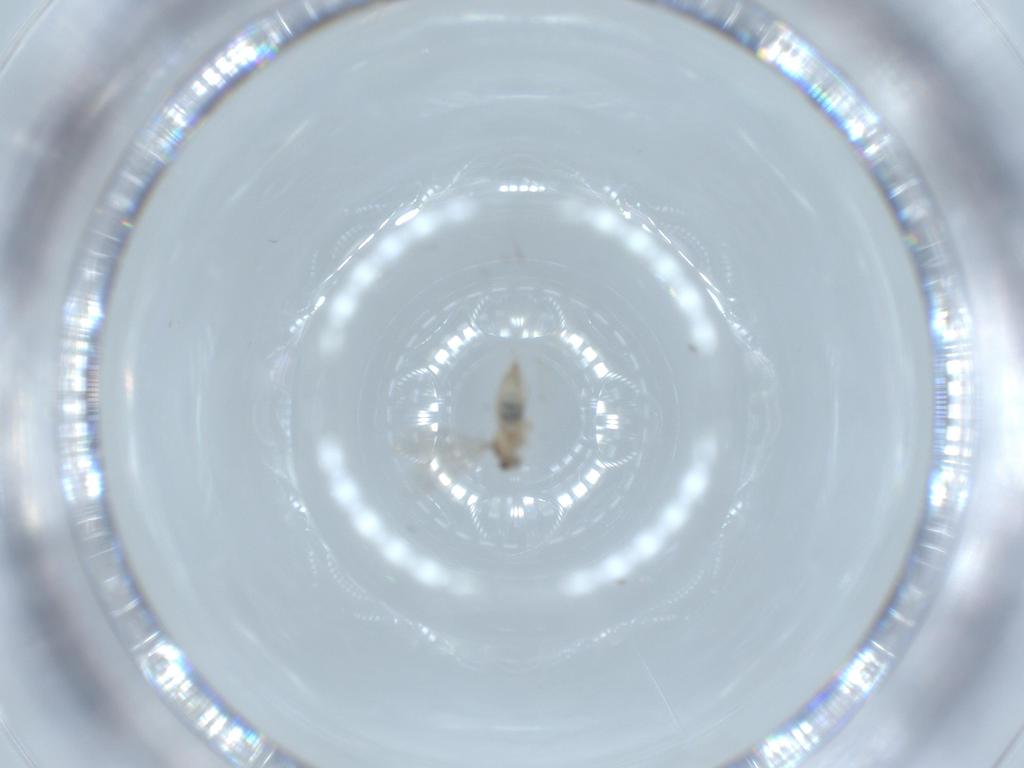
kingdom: Animalia
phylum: Arthropoda
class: Insecta
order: Diptera
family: Cecidomyiidae
